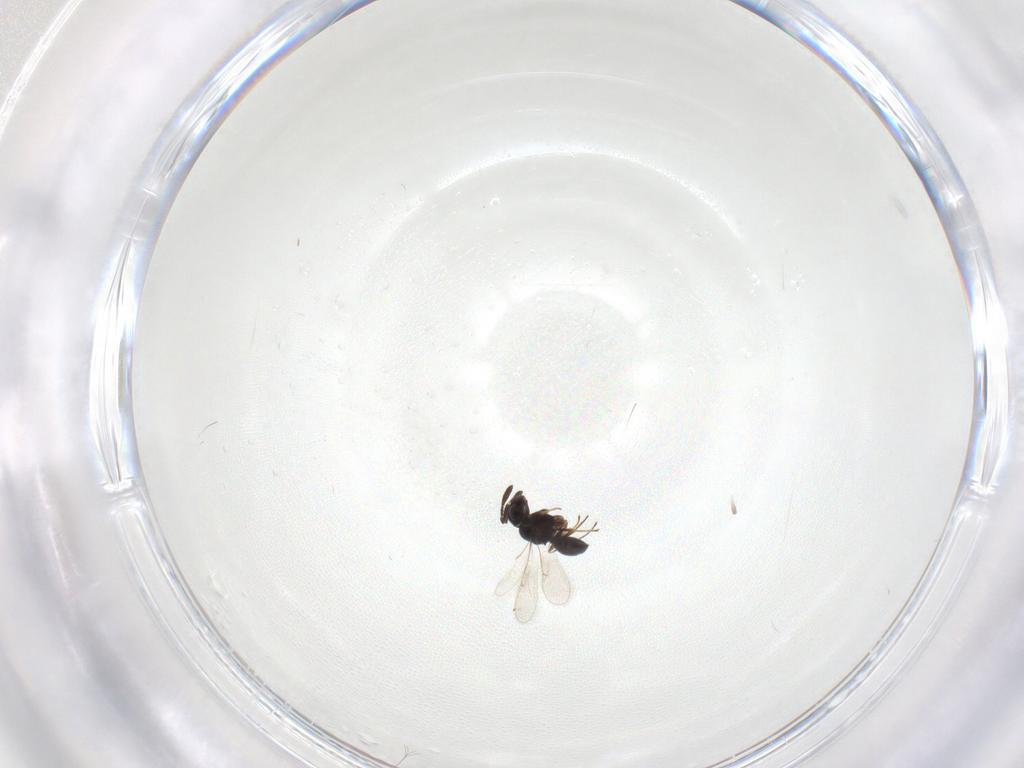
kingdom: Animalia
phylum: Arthropoda
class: Insecta
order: Hymenoptera
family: Scelionidae
